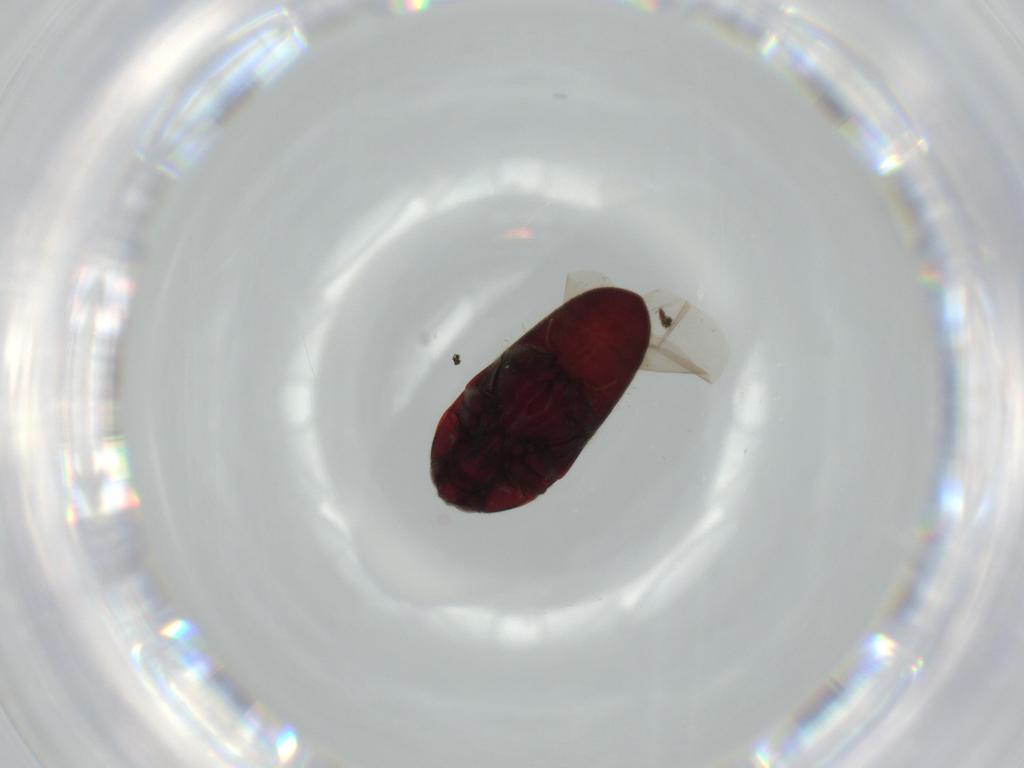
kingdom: Animalia
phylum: Arthropoda
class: Insecta
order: Coleoptera
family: Throscidae
